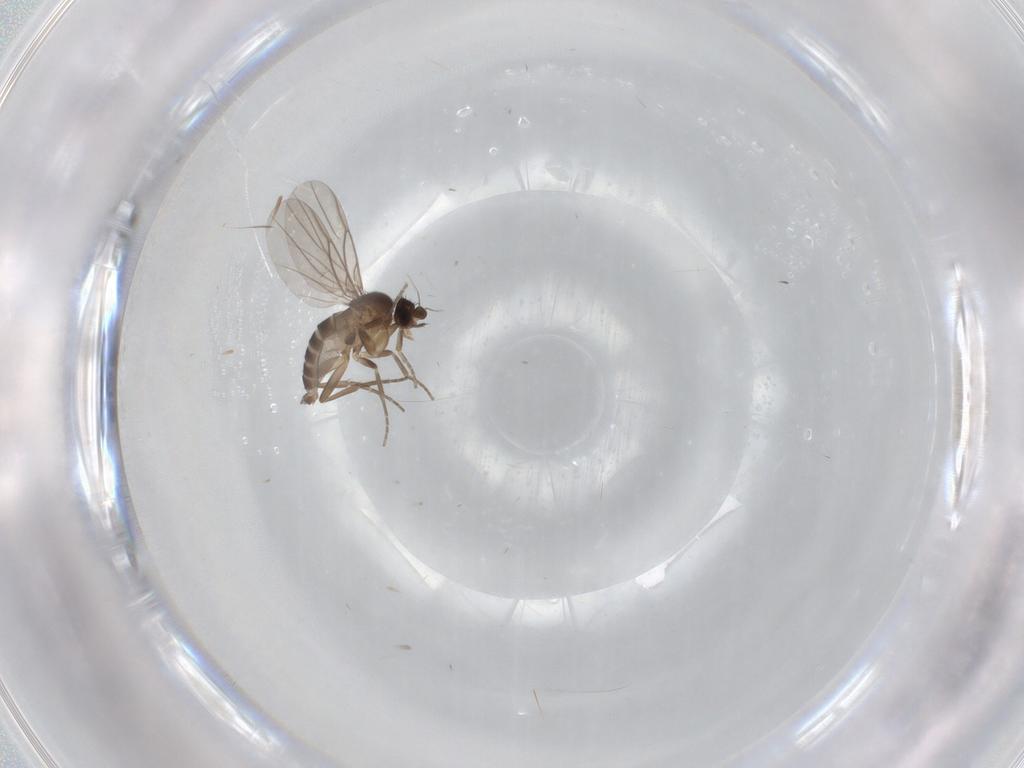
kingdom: Animalia
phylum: Arthropoda
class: Insecta
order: Diptera
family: Phoridae
